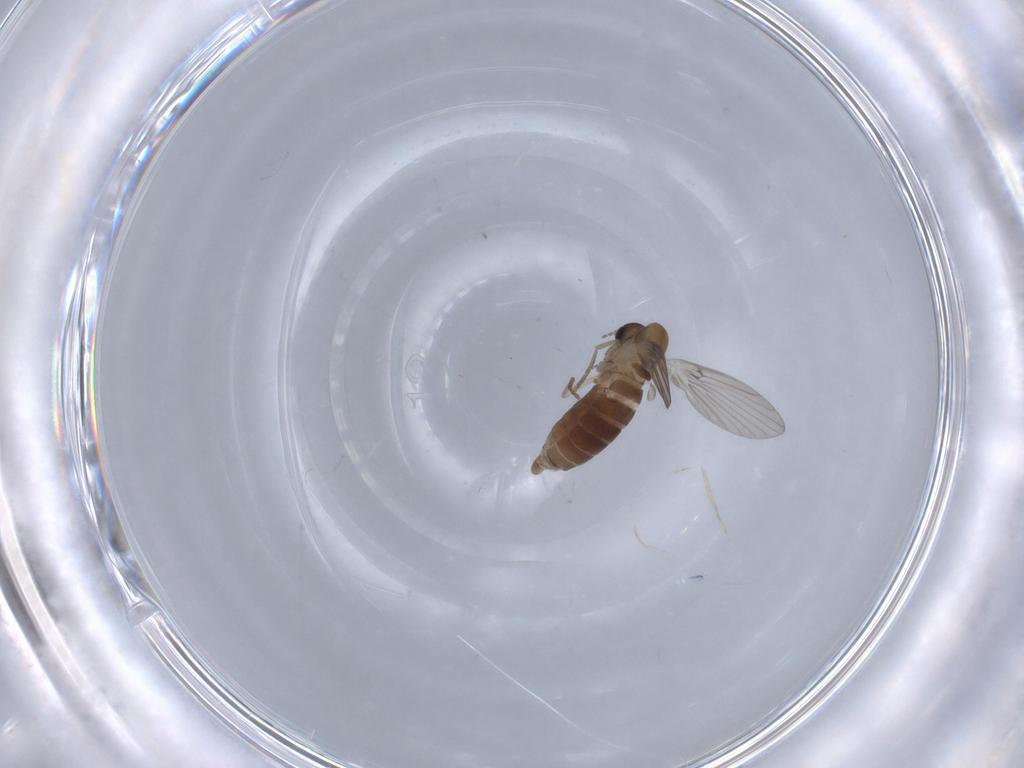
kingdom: Animalia
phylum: Arthropoda
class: Insecta
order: Diptera
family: Psychodidae
